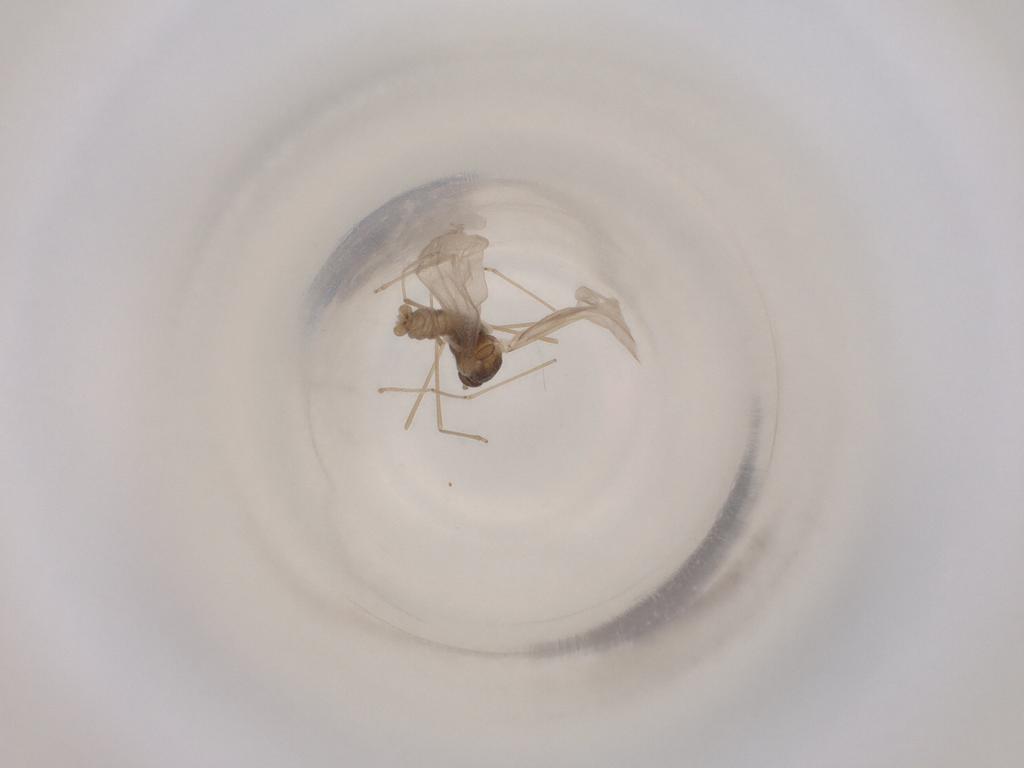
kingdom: Animalia
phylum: Arthropoda
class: Insecta
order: Diptera
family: Cecidomyiidae
